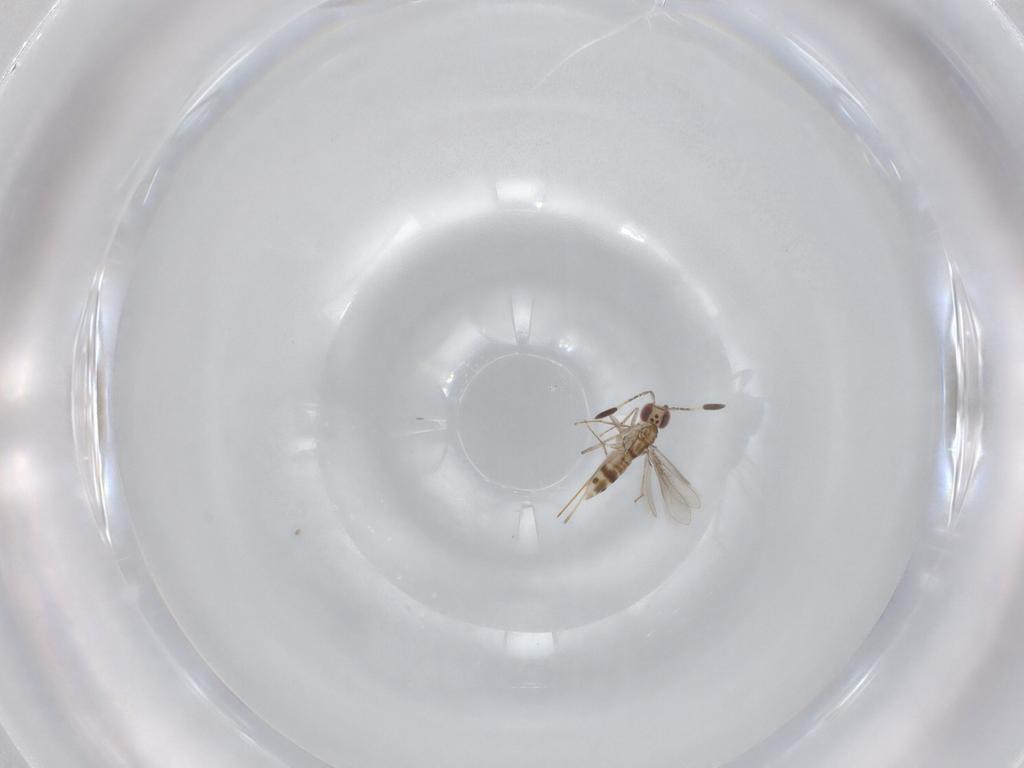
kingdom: Animalia
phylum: Arthropoda
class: Insecta
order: Hymenoptera
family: Mymaridae
